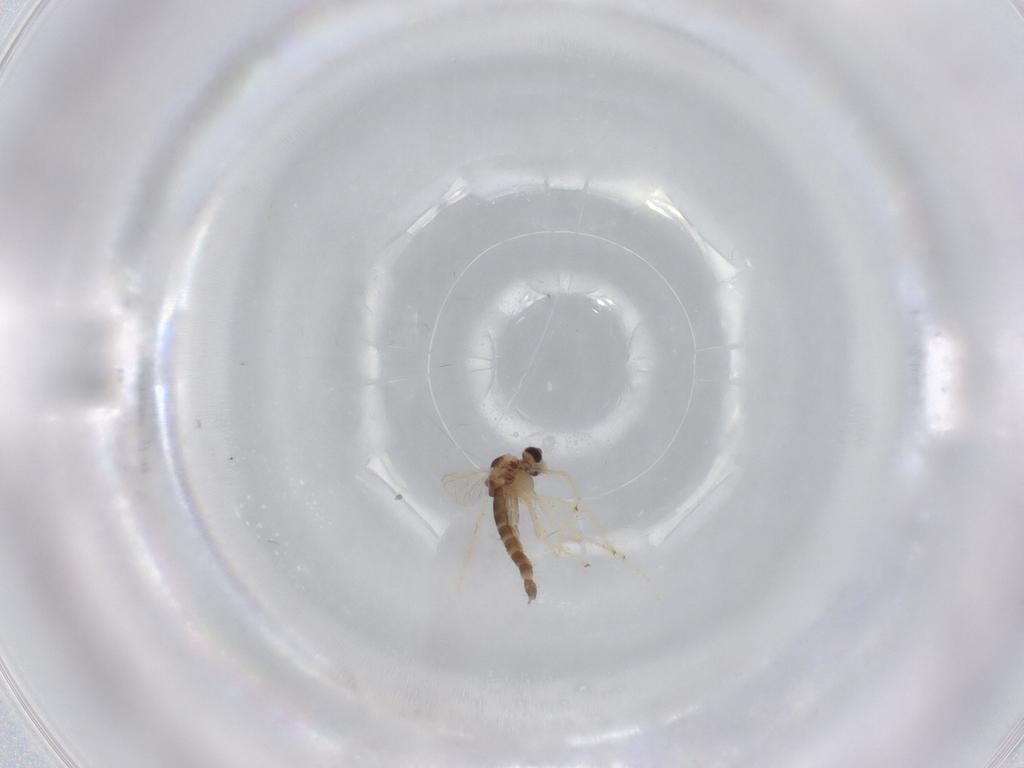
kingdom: Animalia
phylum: Arthropoda
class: Insecta
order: Diptera
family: Chironomidae
